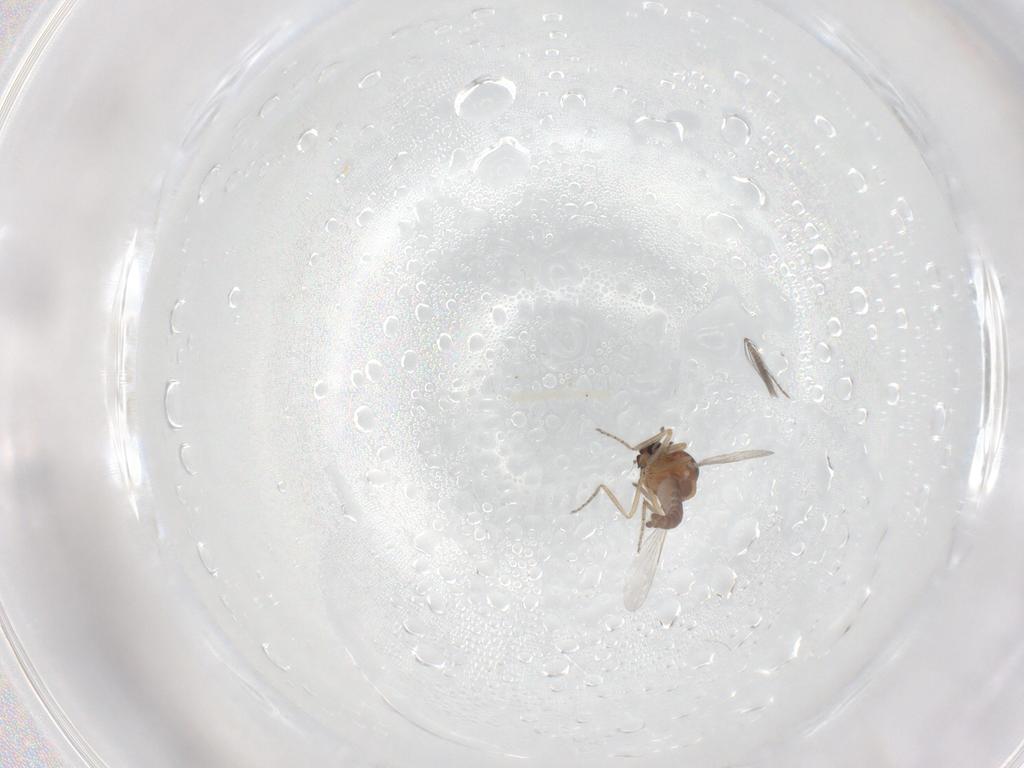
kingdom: Animalia
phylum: Arthropoda
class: Insecta
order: Diptera
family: Ceratopogonidae
